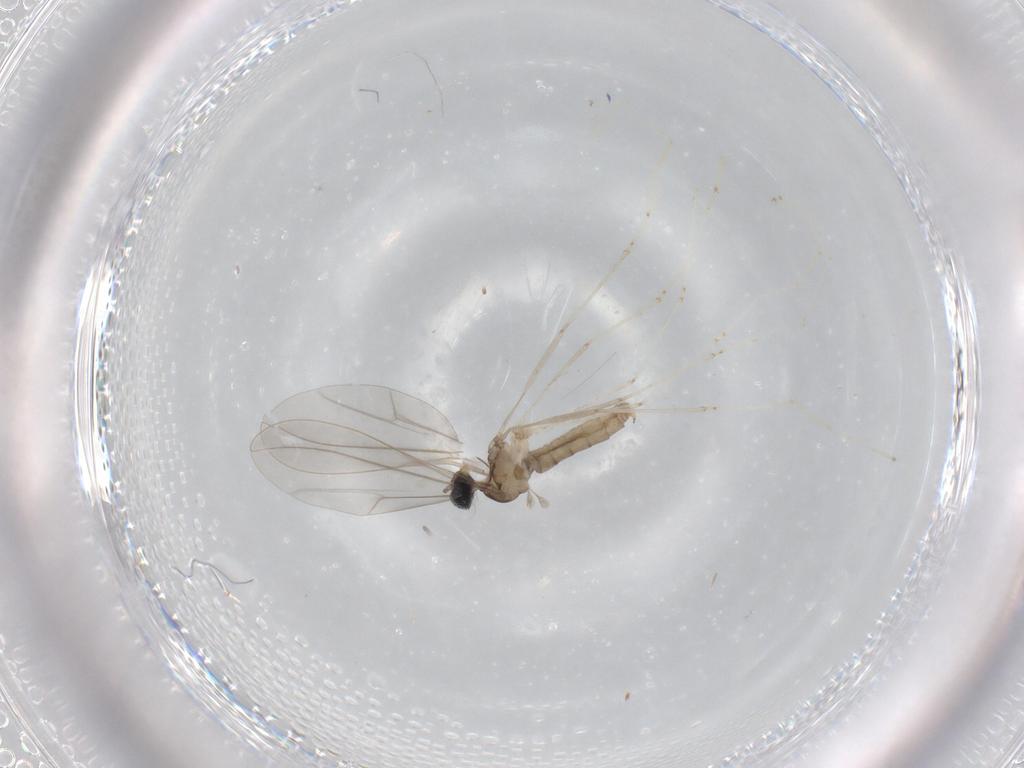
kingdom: Animalia
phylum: Arthropoda
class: Insecta
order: Diptera
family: Cecidomyiidae
